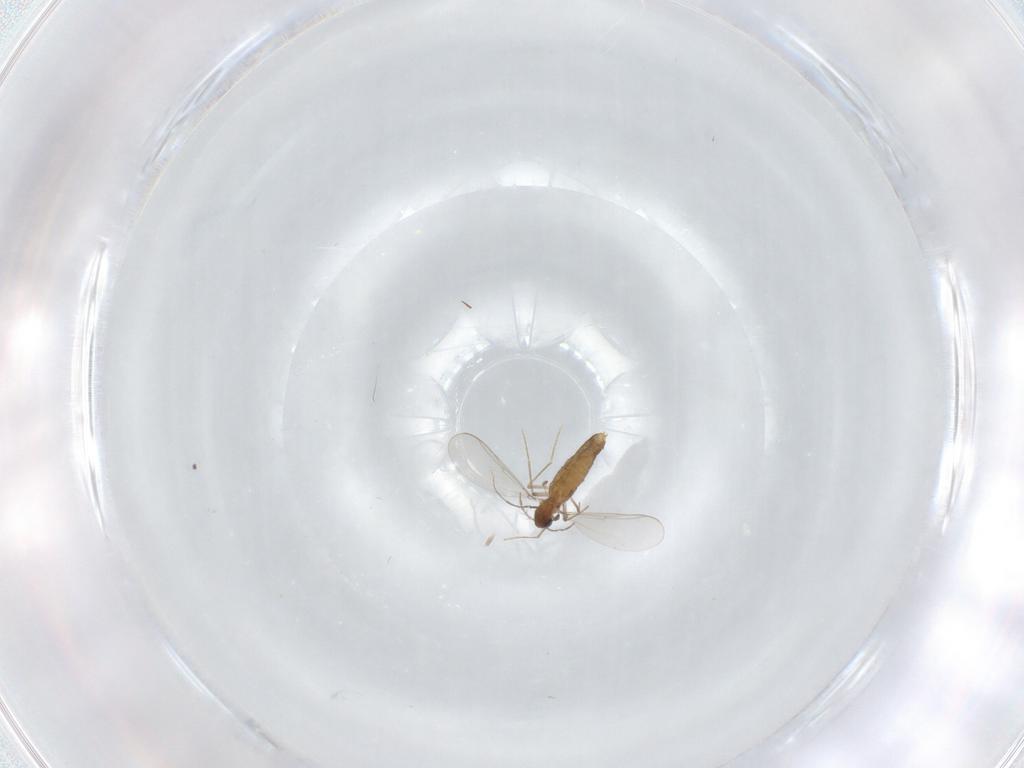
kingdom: Animalia
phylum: Arthropoda
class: Insecta
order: Diptera
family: Chironomidae
